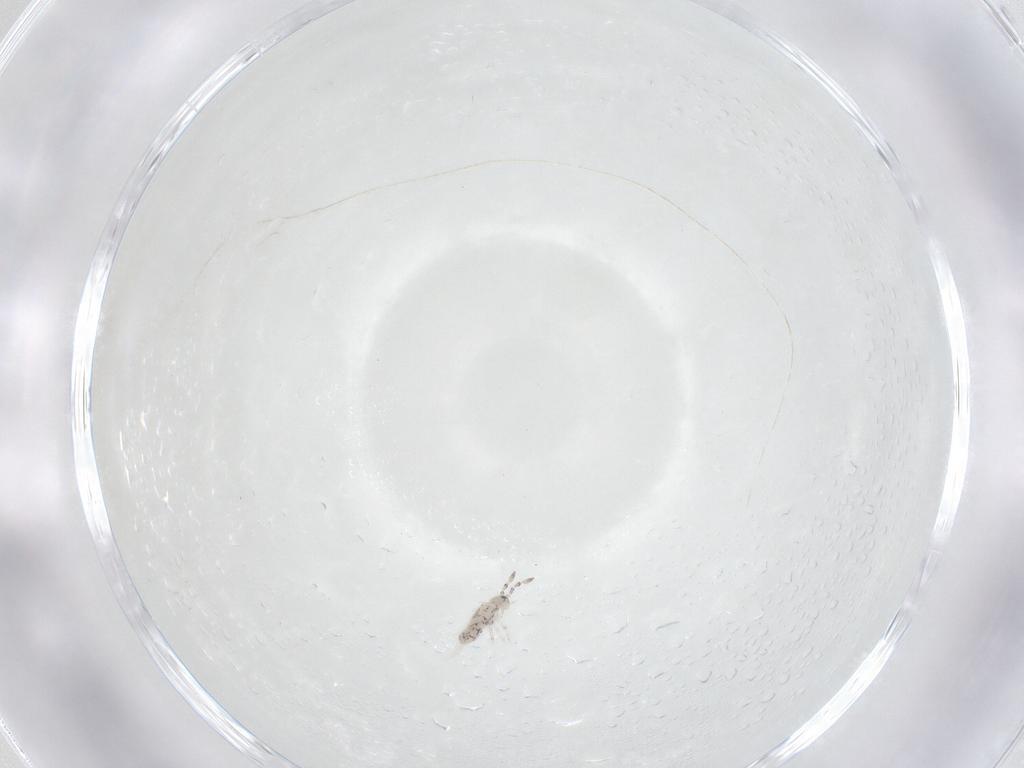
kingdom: Animalia
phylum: Arthropoda
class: Collembola
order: Entomobryomorpha
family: Entomobryidae
